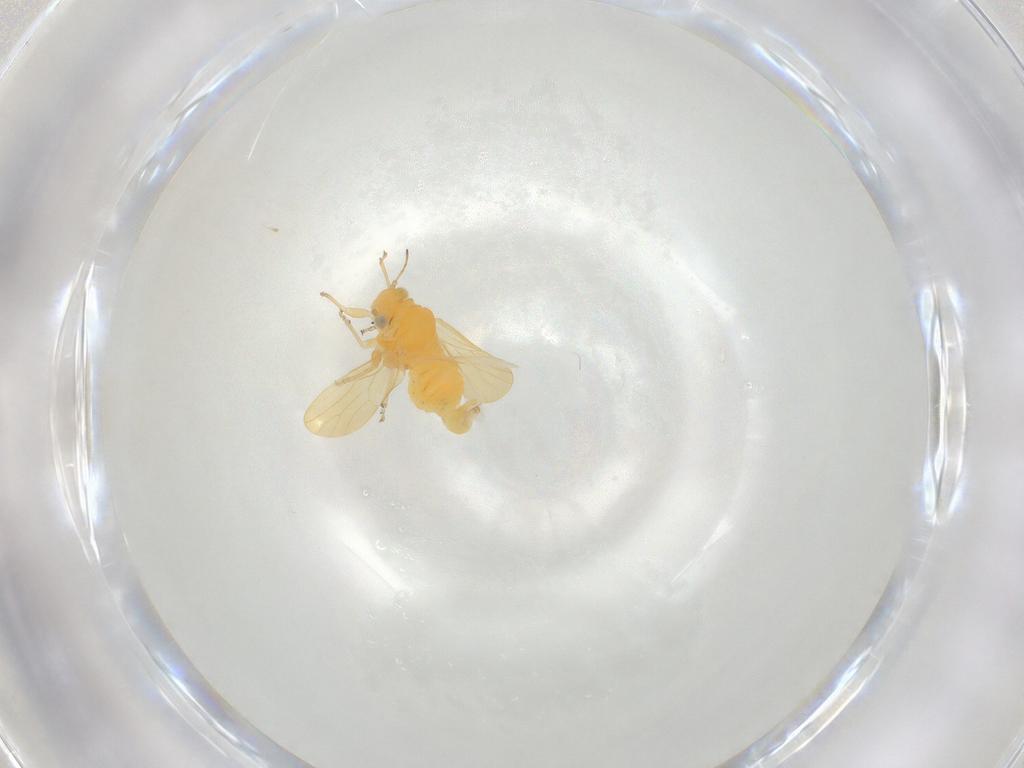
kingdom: Animalia
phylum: Arthropoda
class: Insecta
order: Hemiptera
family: Liviidae
